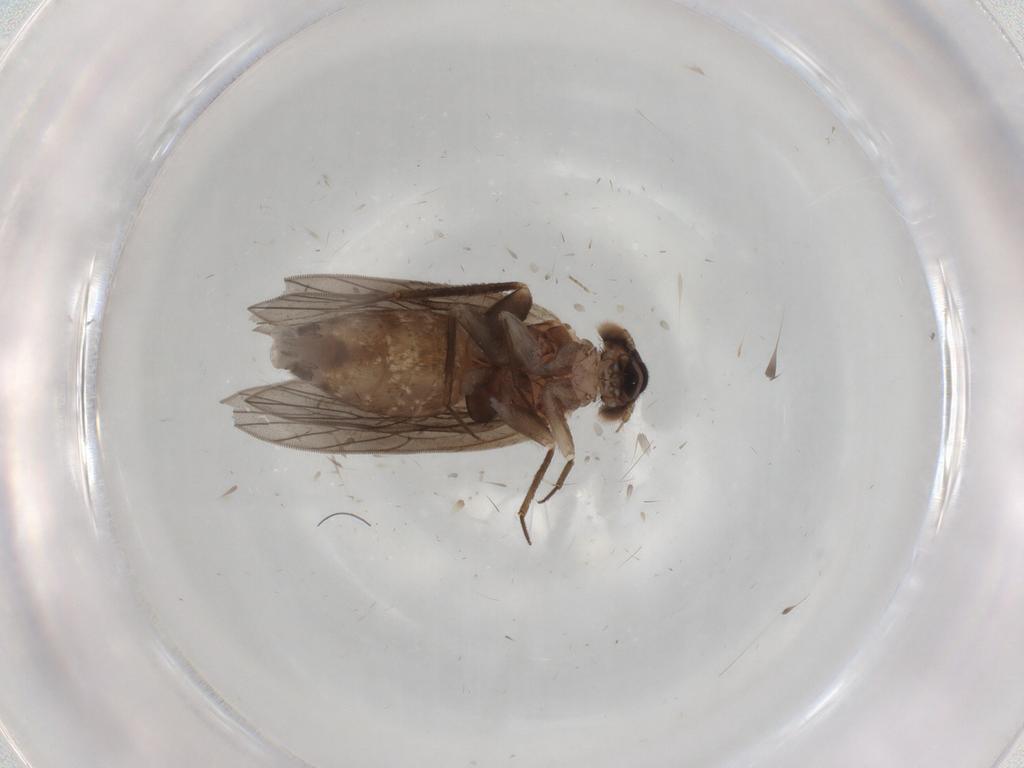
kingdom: Animalia
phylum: Arthropoda
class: Insecta
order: Psocodea
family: Lepidopsocidae
